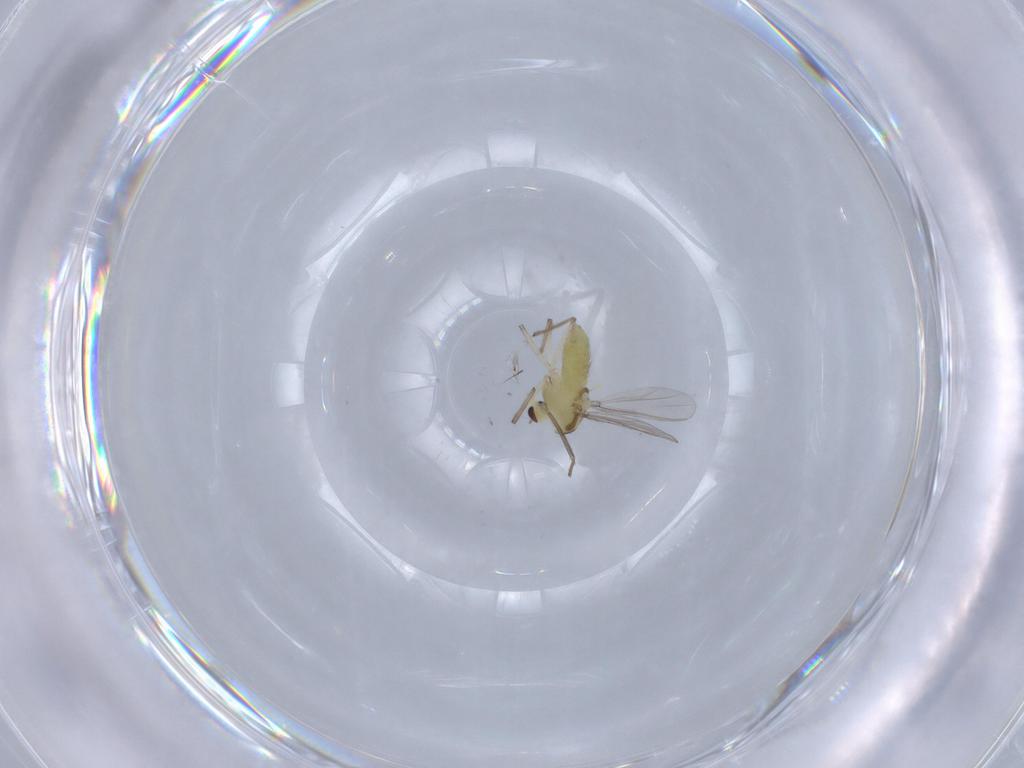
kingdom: Animalia
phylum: Arthropoda
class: Insecta
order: Diptera
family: Chironomidae
